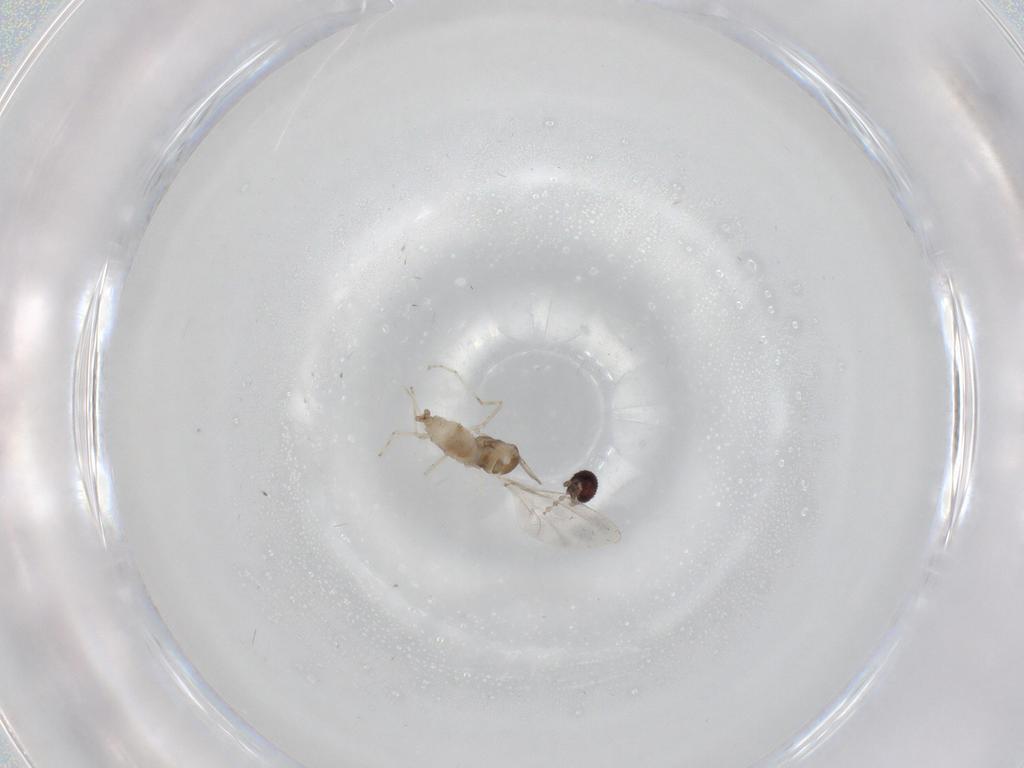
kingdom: Animalia
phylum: Arthropoda
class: Insecta
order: Diptera
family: Cecidomyiidae
